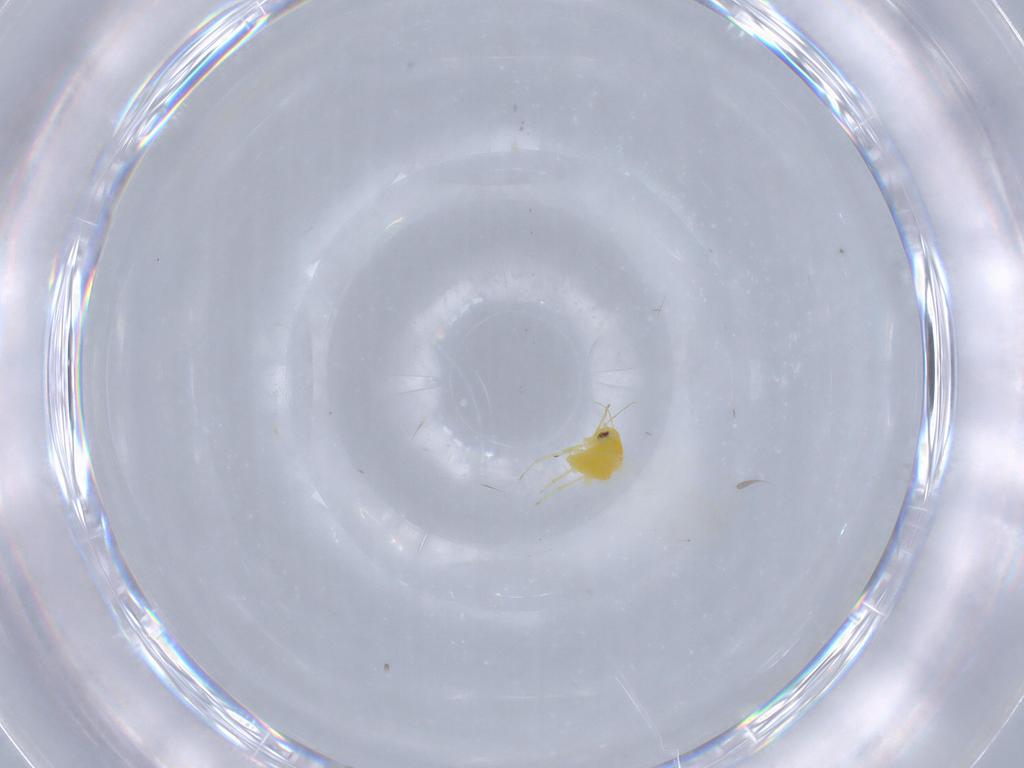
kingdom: Animalia
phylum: Arthropoda
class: Insecta
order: Hemiptera
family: Aleyrodidae
